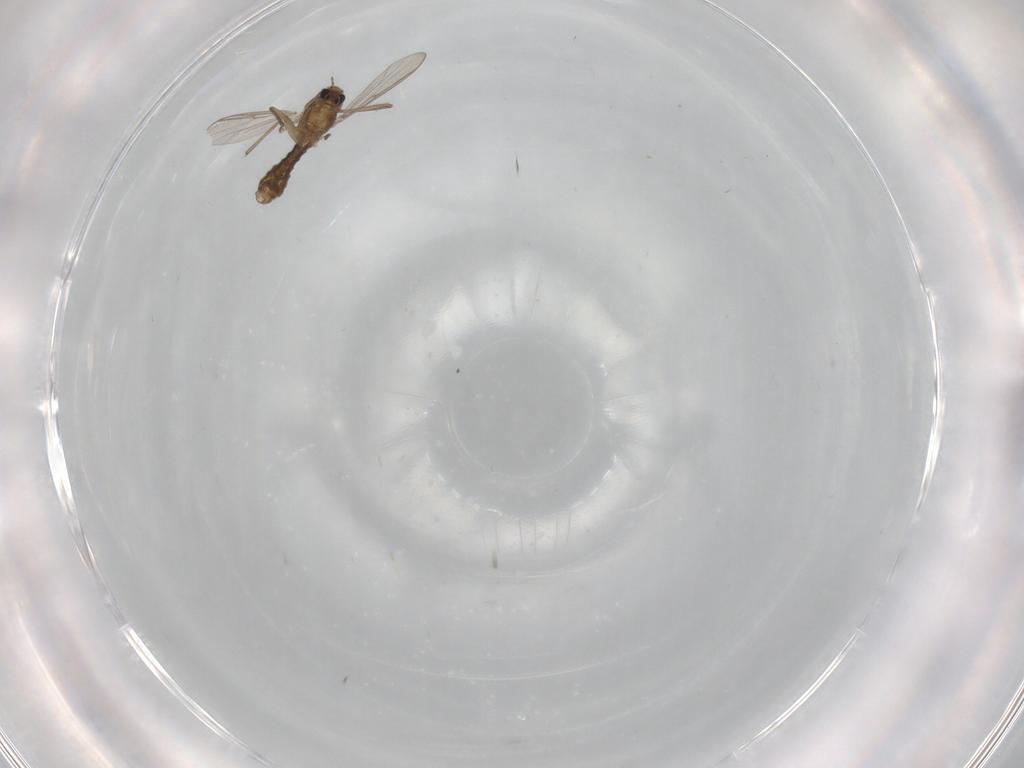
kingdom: Animalia
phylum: Arthropoda
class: Insecta
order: Diptera
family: Chironomidae
